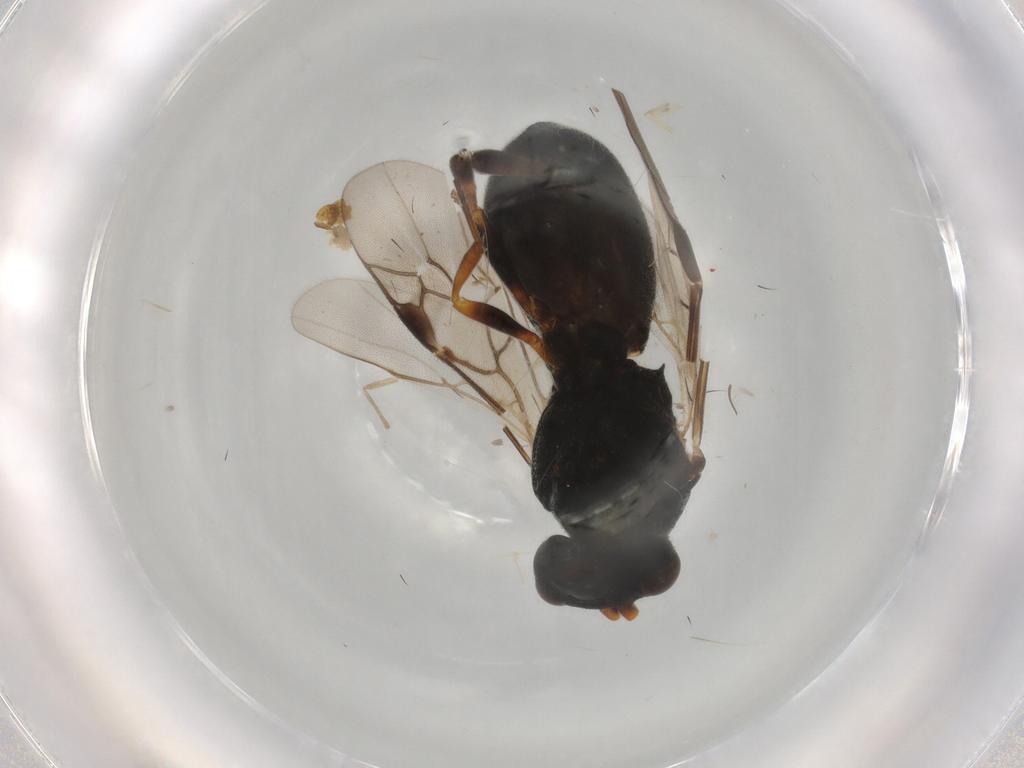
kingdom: Animalia
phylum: Arthropoda
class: Insecta
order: Diptera
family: Glossinidae
